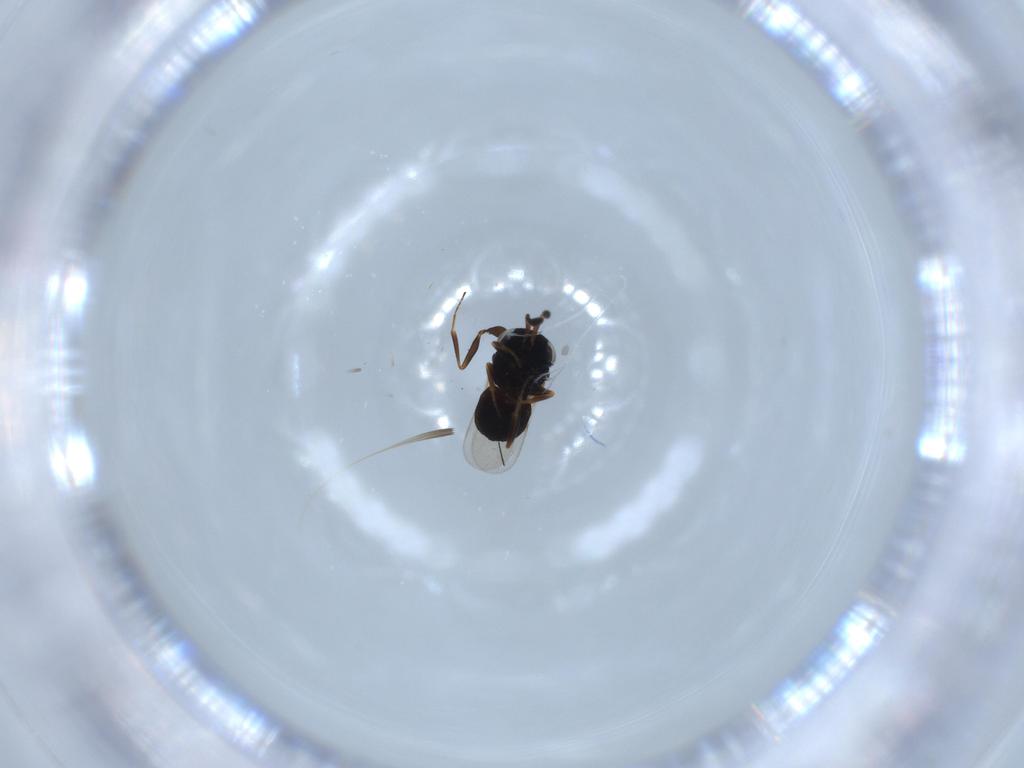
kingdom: Animalia
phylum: Arthropoda
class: Insecta
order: Hymenoptera
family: Scelionidae
